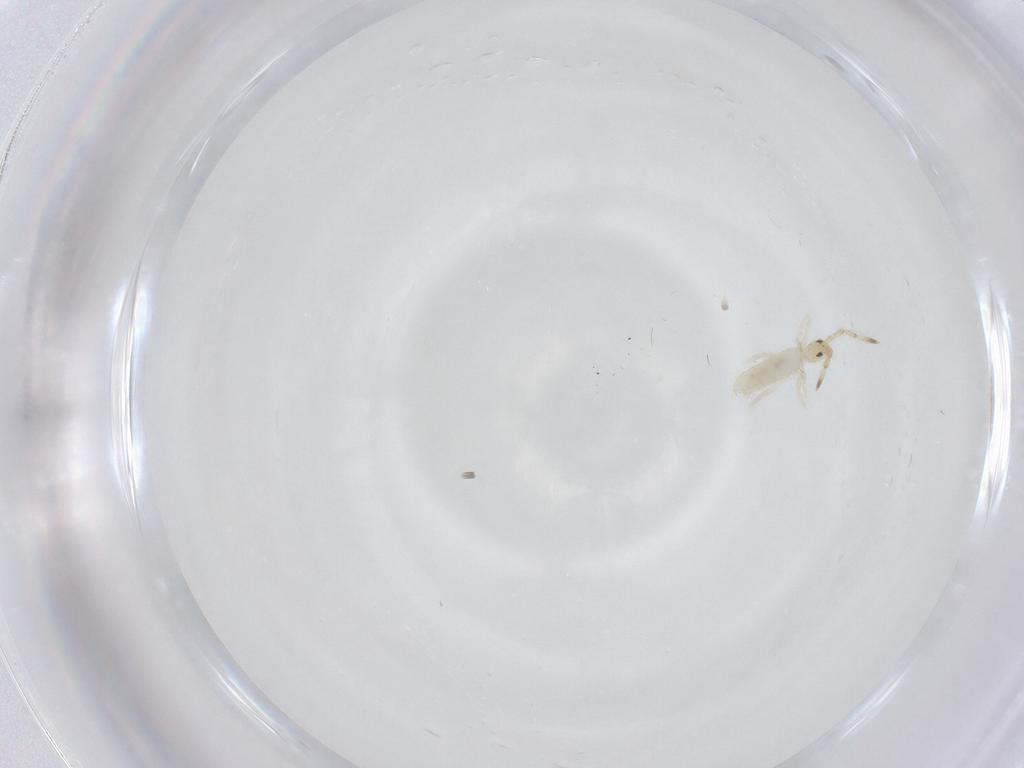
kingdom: Animalia
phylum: Arthropoda
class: Collembola
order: Entomobryomorpha
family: Entomobryidae
